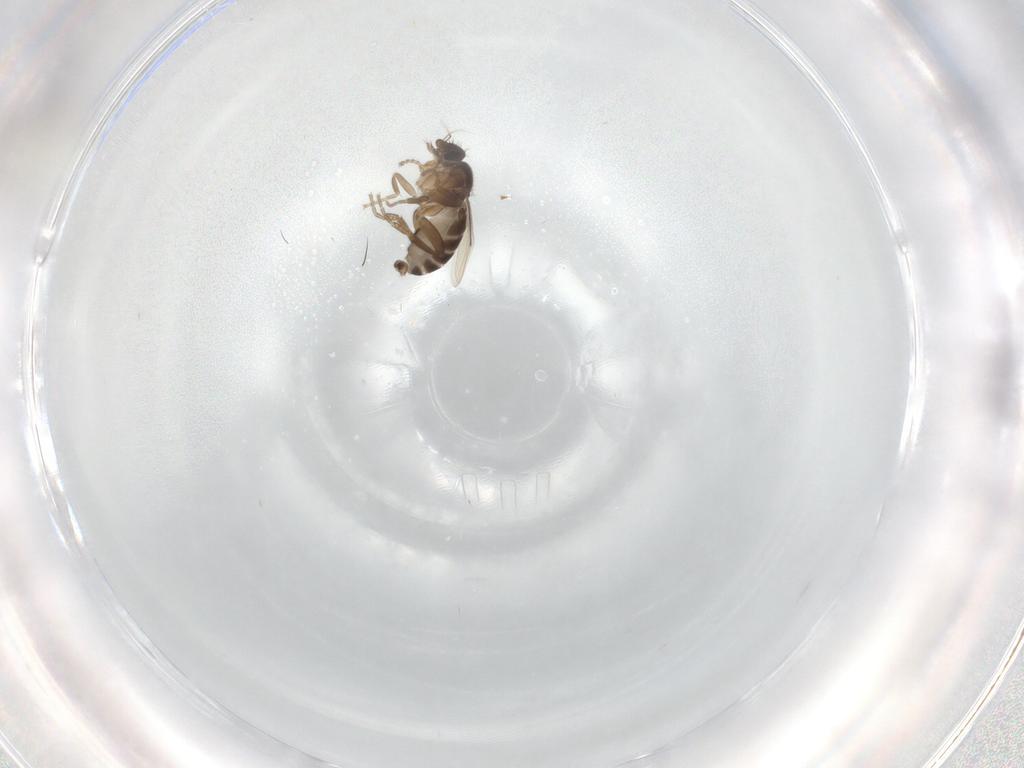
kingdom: Animalia
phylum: Arthropoda
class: Insecta
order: Diptera
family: Phoridae
